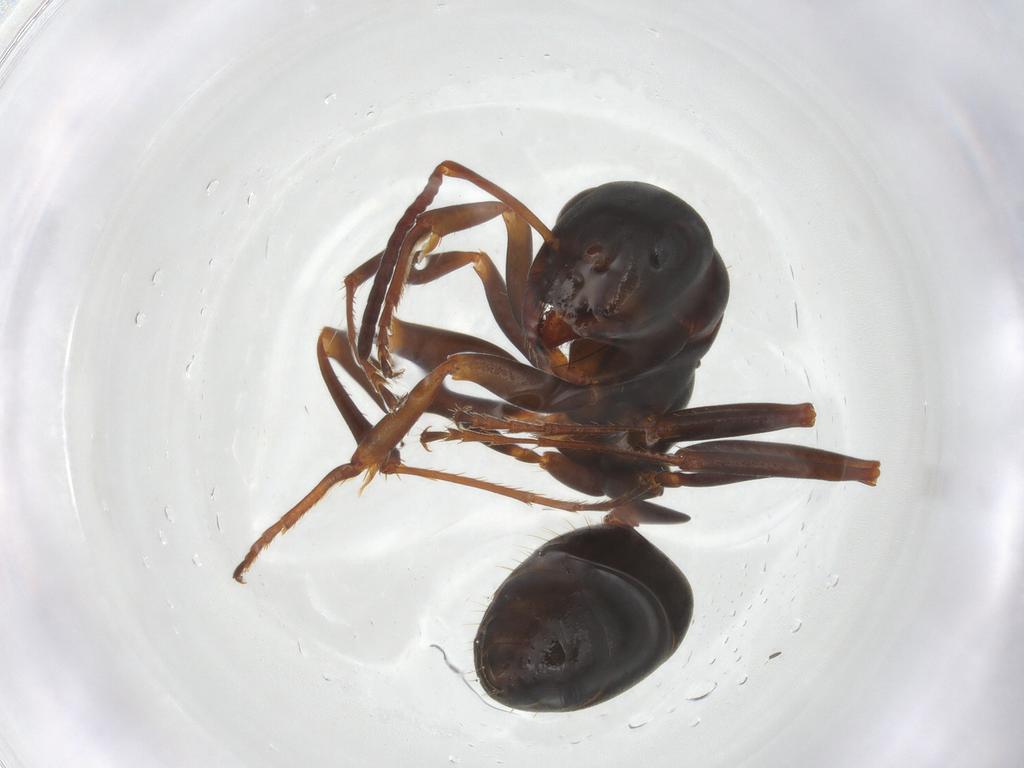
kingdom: Animalia
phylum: Arthropoda
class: Insecta
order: Hymenoptera
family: Formicidae
